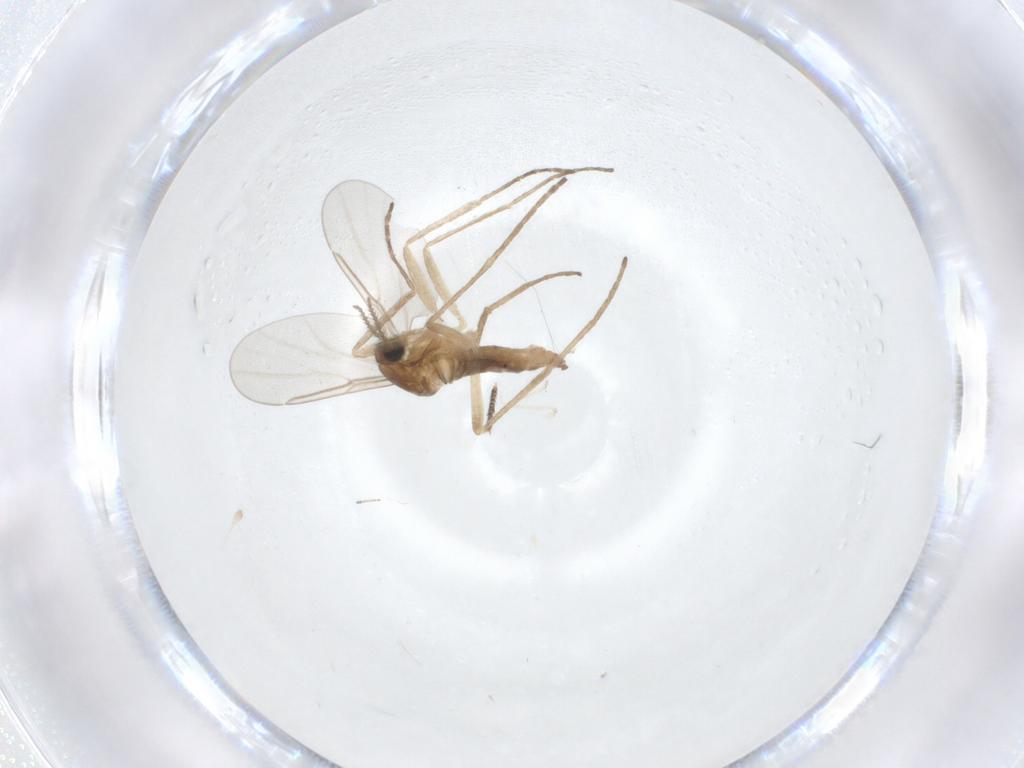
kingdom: Animalia
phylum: Arthropoda
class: Insecta
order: Diptera
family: Cecidomyiidae
